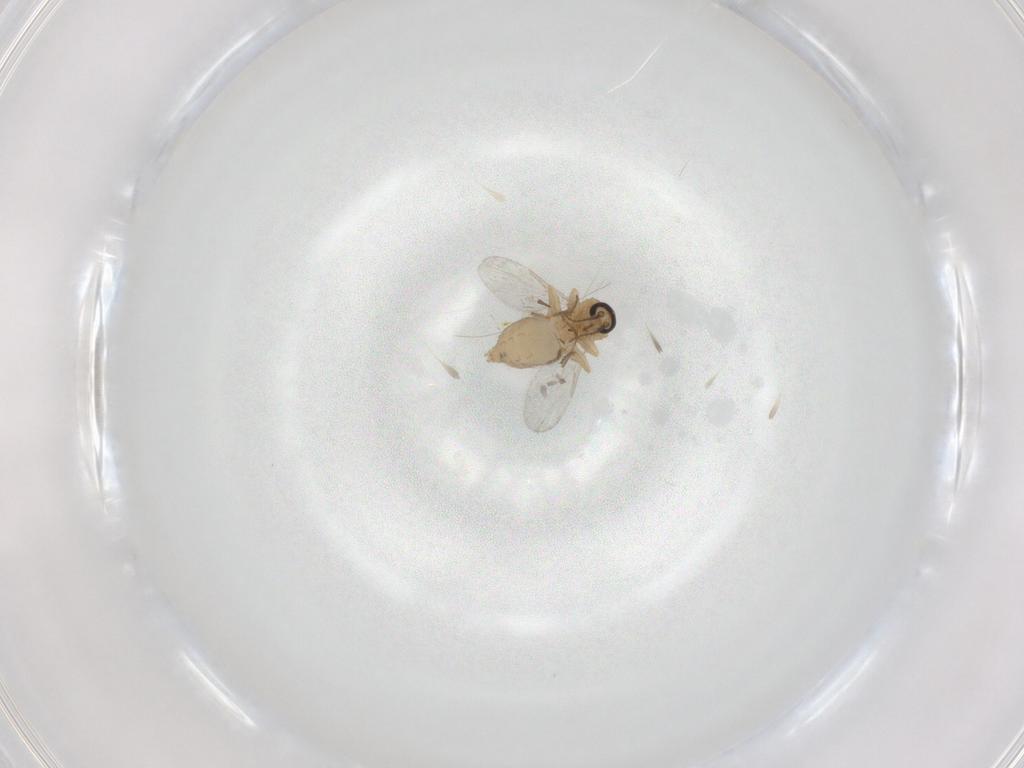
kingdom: Animalia
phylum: Arthropoda
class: Insecta
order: Diptera
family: Ceratopogonidae
